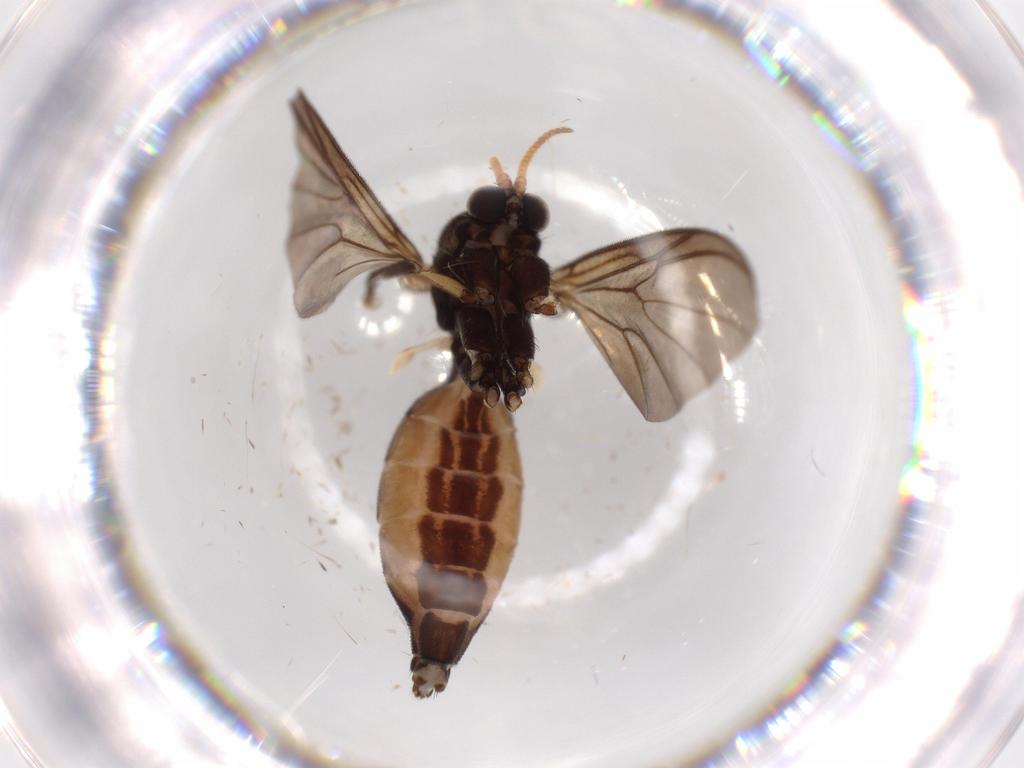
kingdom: Animalia
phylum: Arthropoda
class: Insecta
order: Diptera
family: Mycetophilidae
